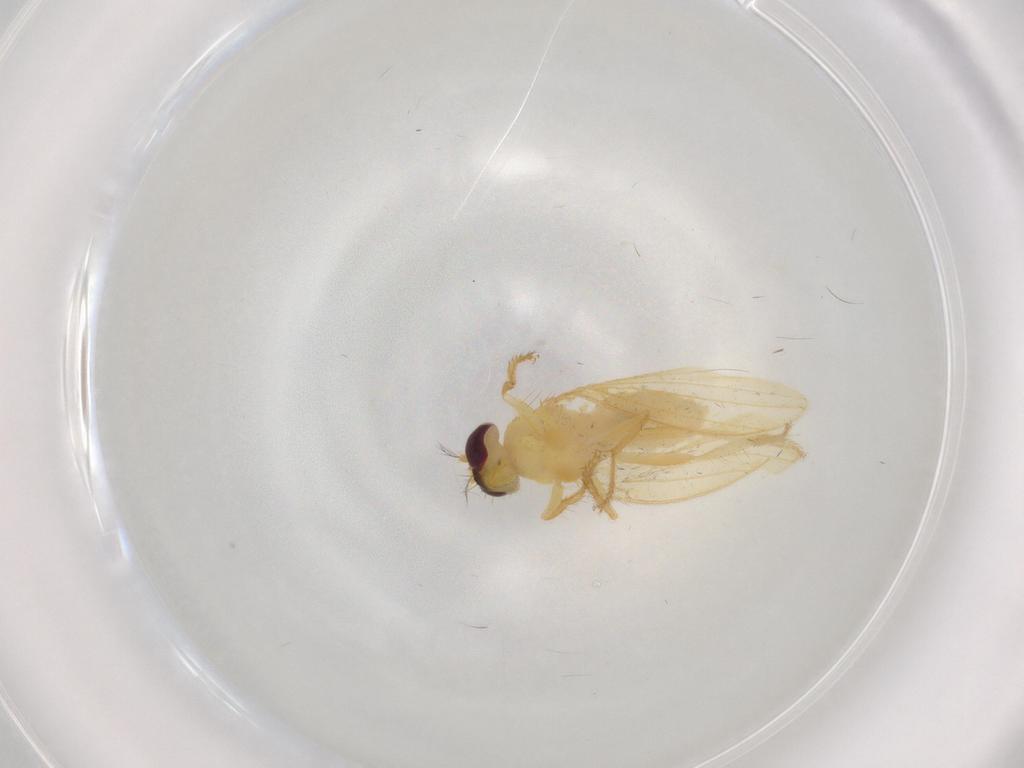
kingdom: Animalia
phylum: Arthropoda
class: Insecta
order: Diptera
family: Periscelididae
